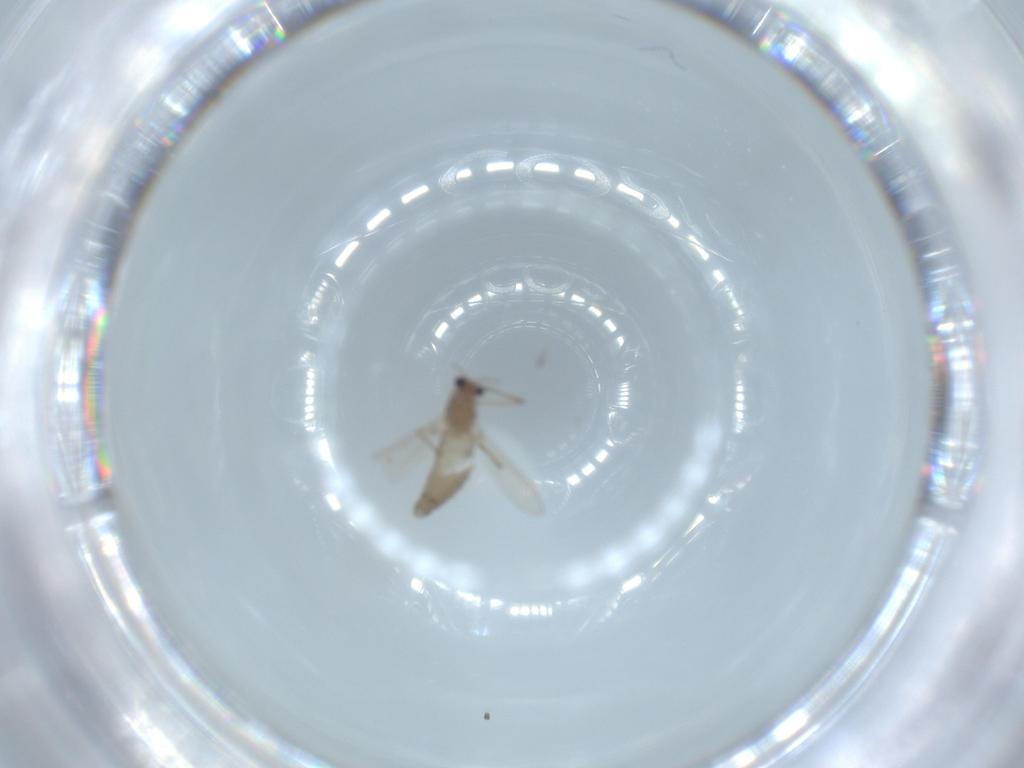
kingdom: Animalia
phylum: Arthropoda
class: Insecta
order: Diptera
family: Chironomidae
